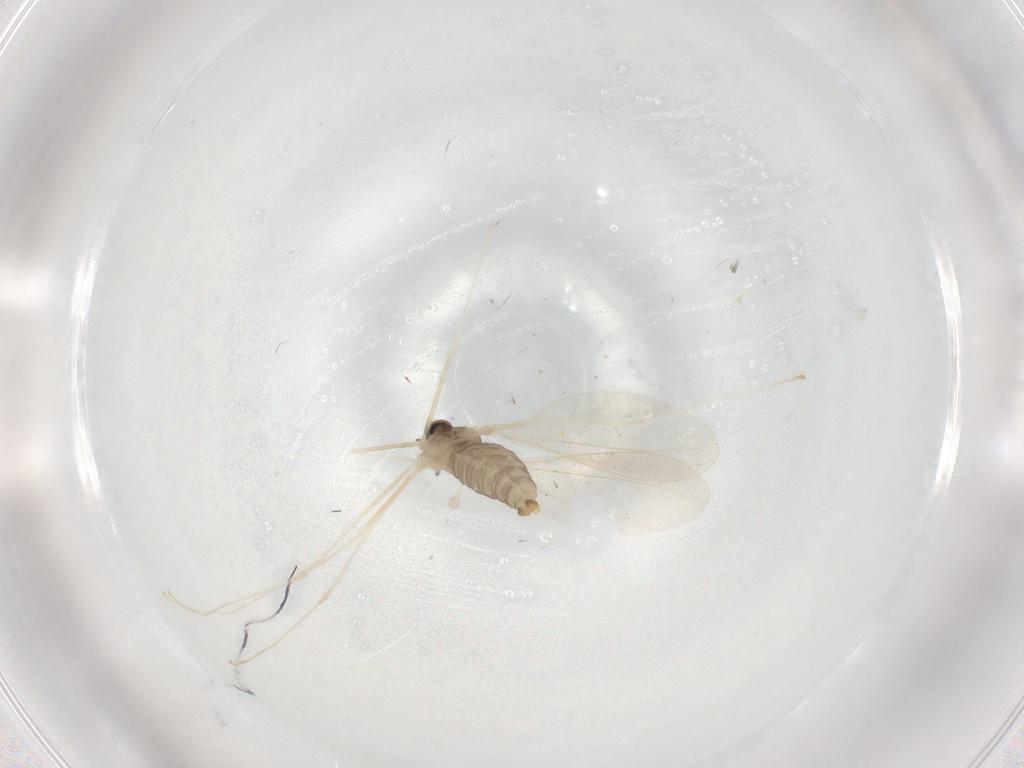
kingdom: Animalia
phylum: Arthropoda
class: Insecta
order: Diptera
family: Cecidomyiidae
